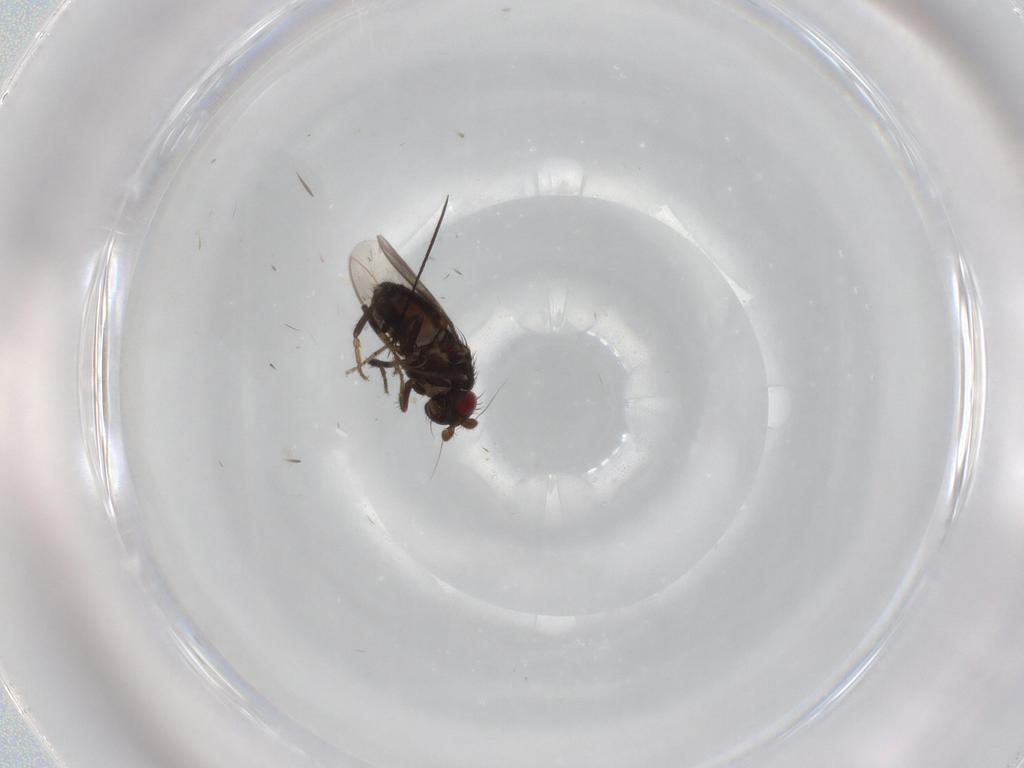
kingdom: Animalia
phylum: Arthropoda
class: Insecta
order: Diptera
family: Sphaeroceridae
